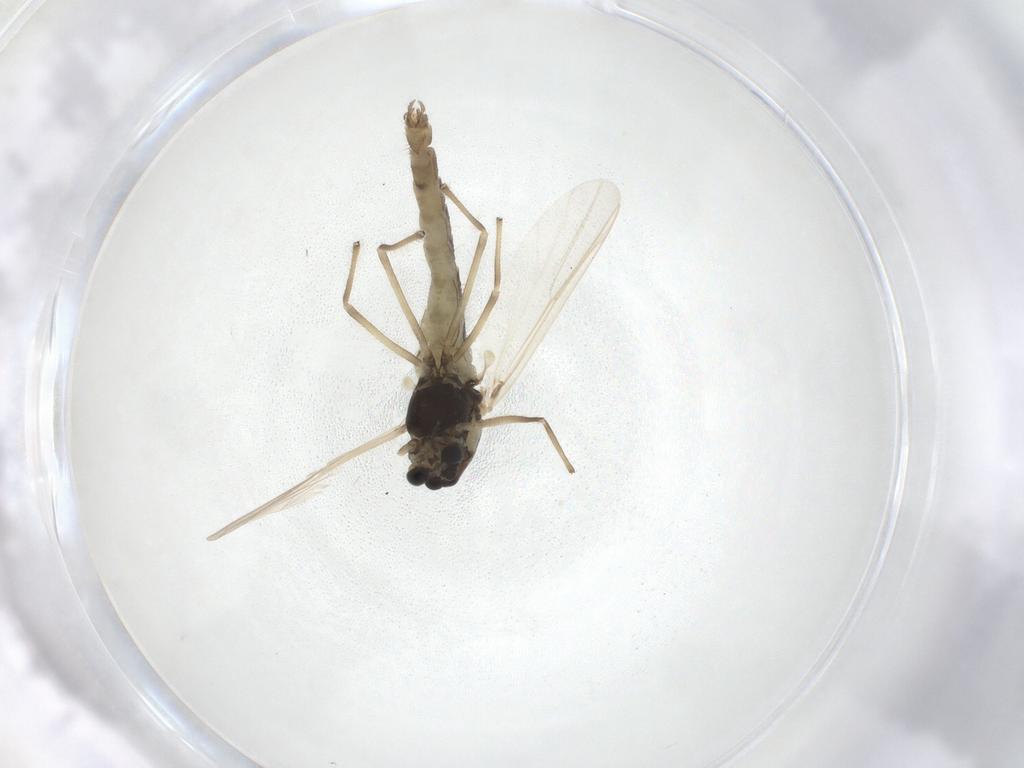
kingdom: Animalia
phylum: Arthropoda
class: Insecta
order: Diptera
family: Chironomidae
